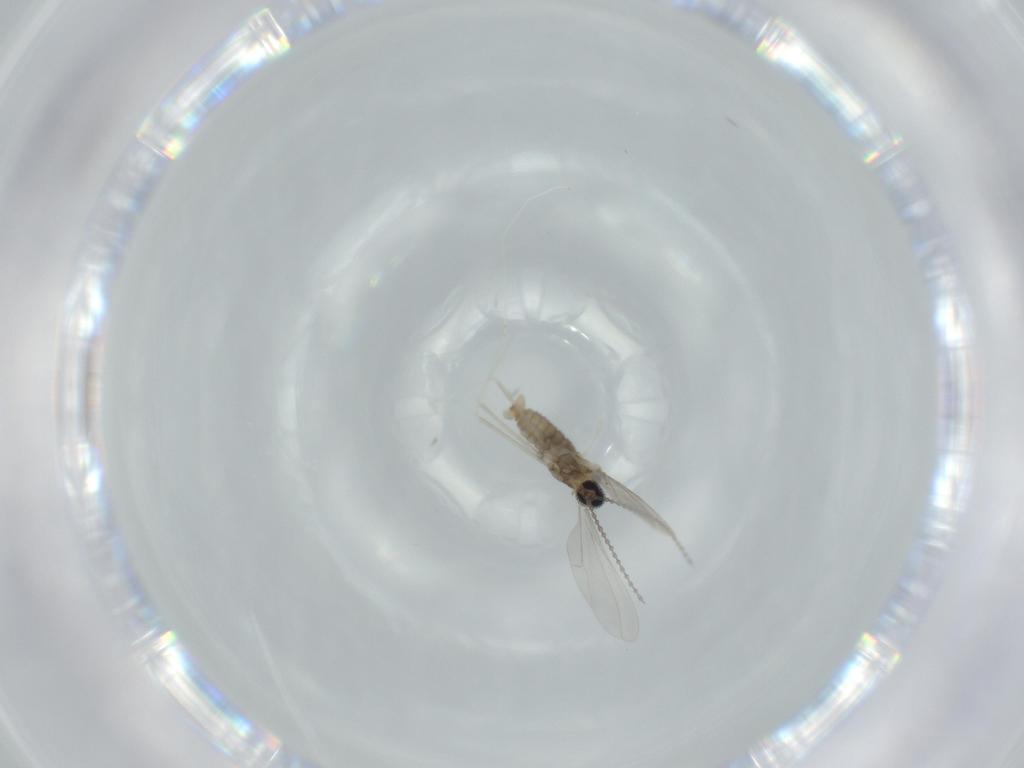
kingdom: Animalia
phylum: Arthropoda
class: Insecta
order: Diptera
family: Cecidomyiidae
